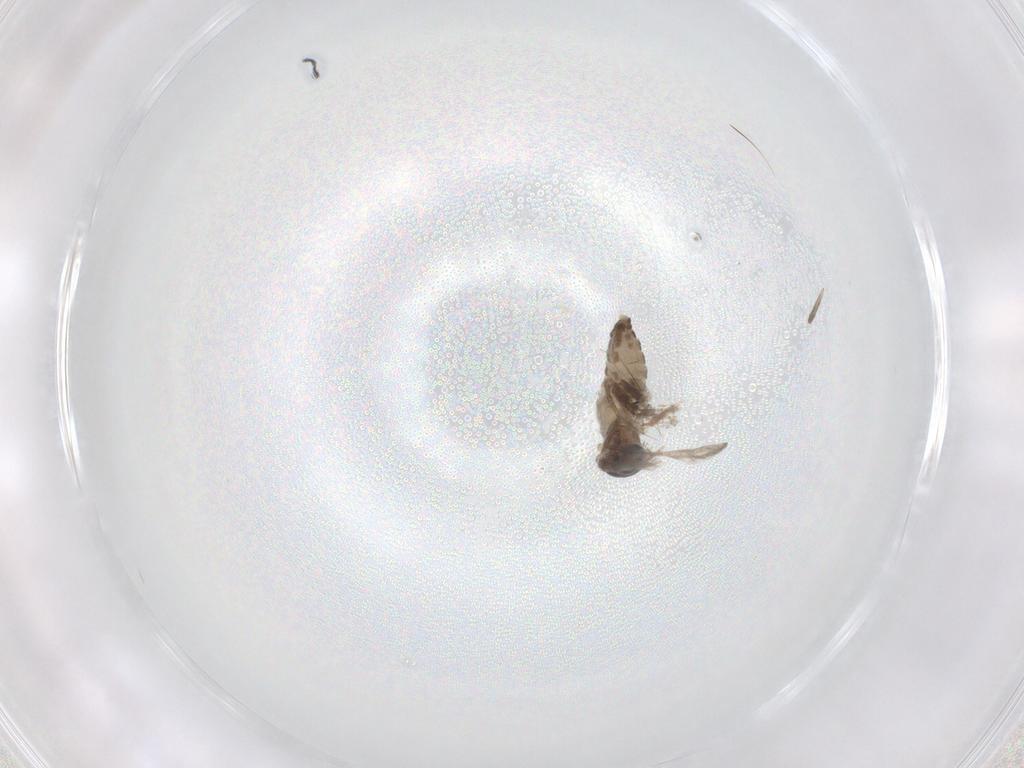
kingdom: Animalia
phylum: Arthropoda
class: Insecta
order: Diptera
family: Ceratopogonidae
